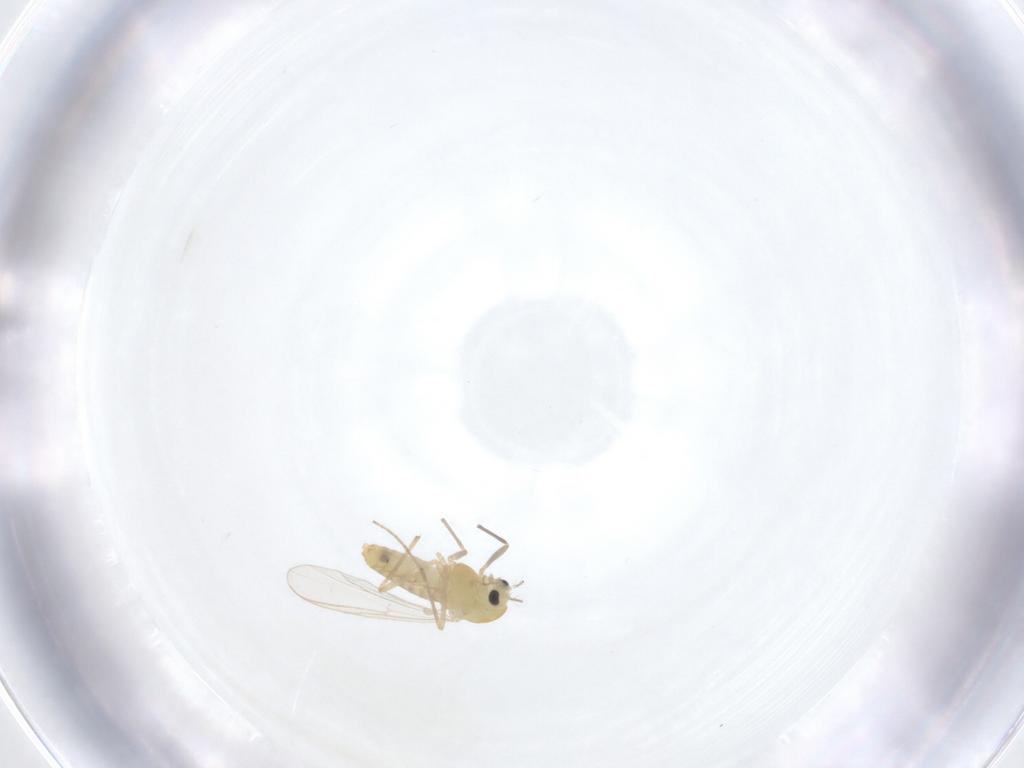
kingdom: Animalia
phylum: Arthropoda
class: Insecta
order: Diptera
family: Chironomidae
